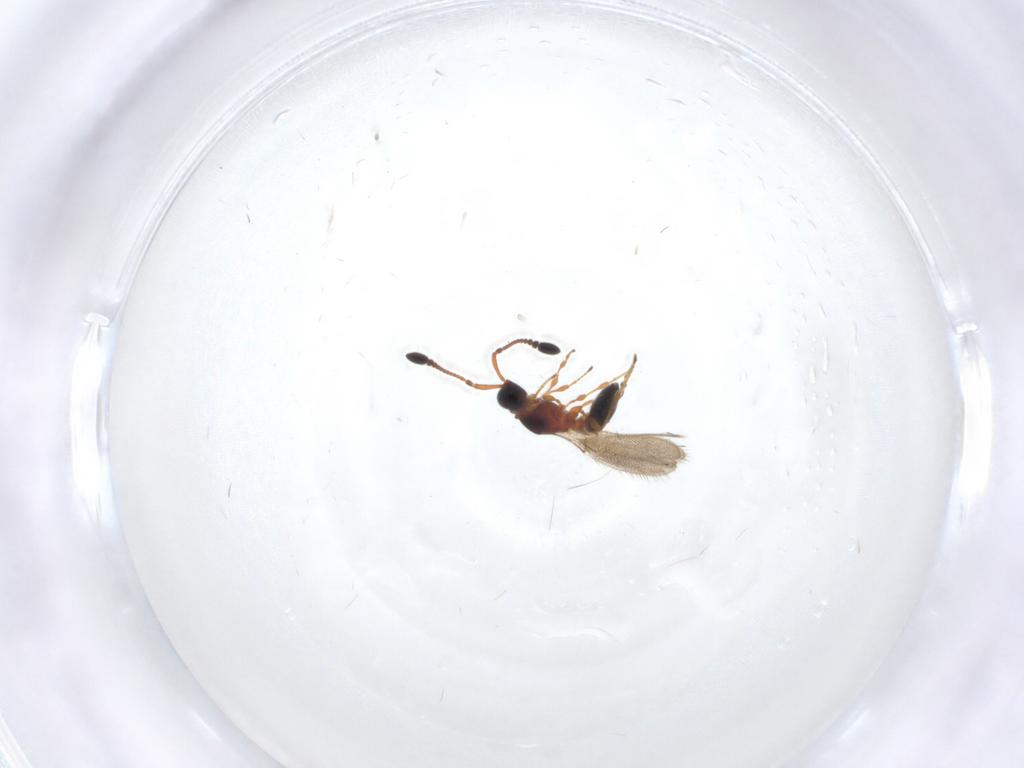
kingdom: Animalia
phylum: Arthropoda
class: Insecta
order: Hymenoptera
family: Diapriidae
